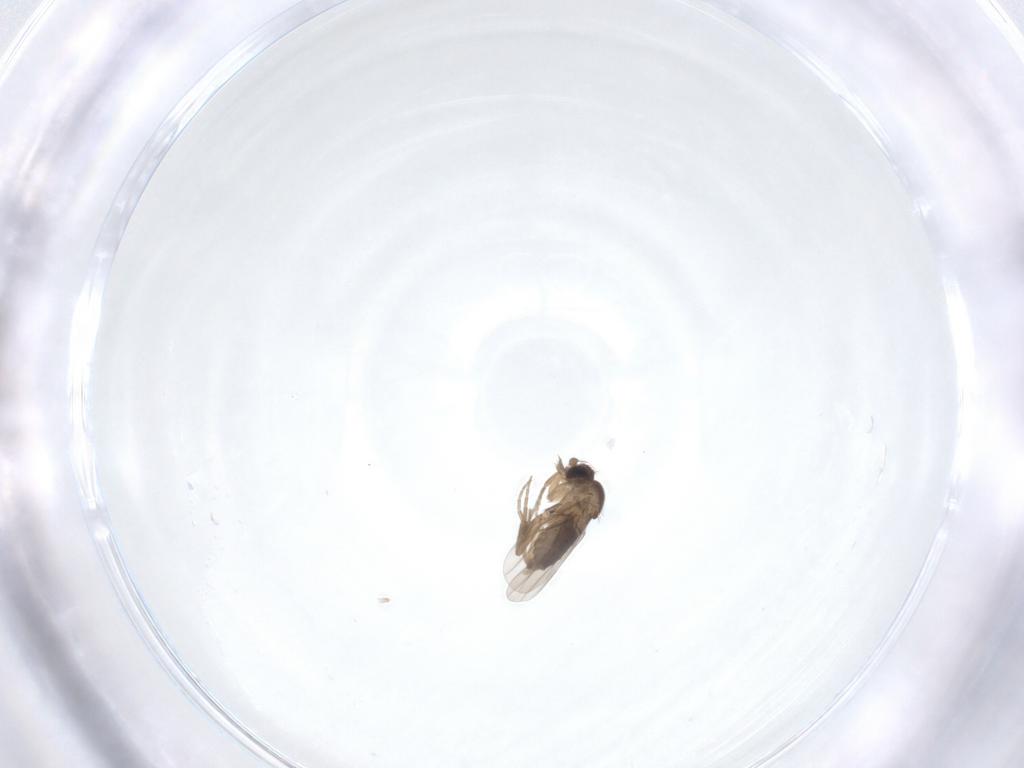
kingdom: Animalia
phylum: Arthropoda
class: Insecta
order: Diptera
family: Phoridae
